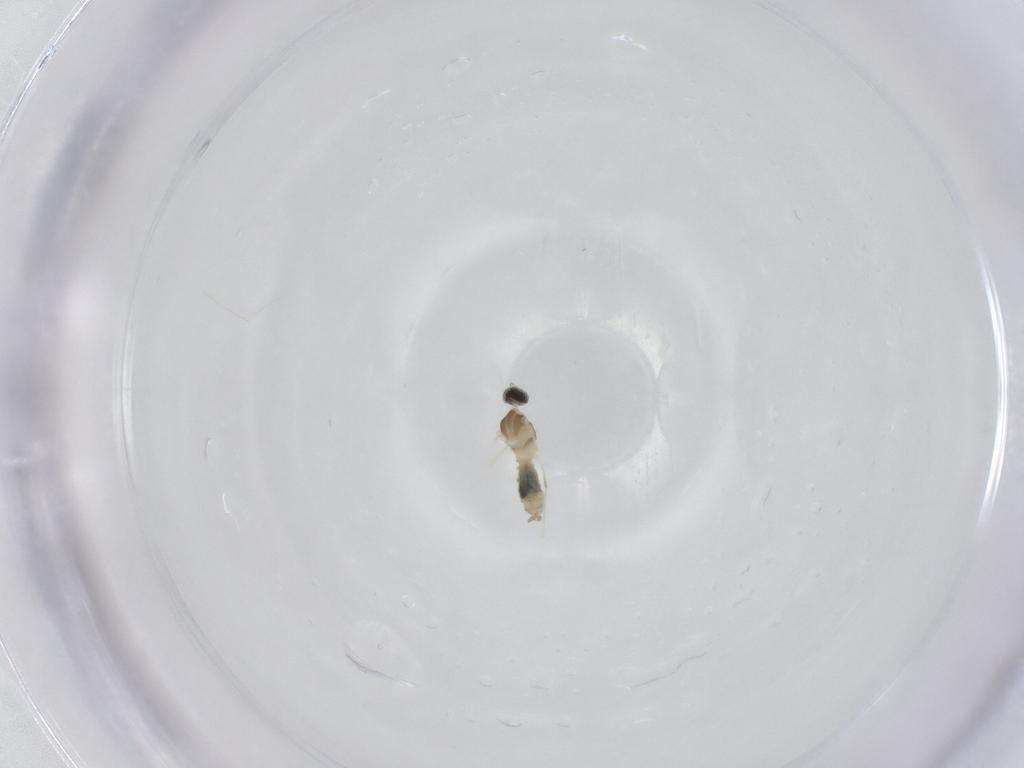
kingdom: Animalia
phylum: Arthropoda
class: Insecta
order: Diptera
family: Cecidomyiidae
